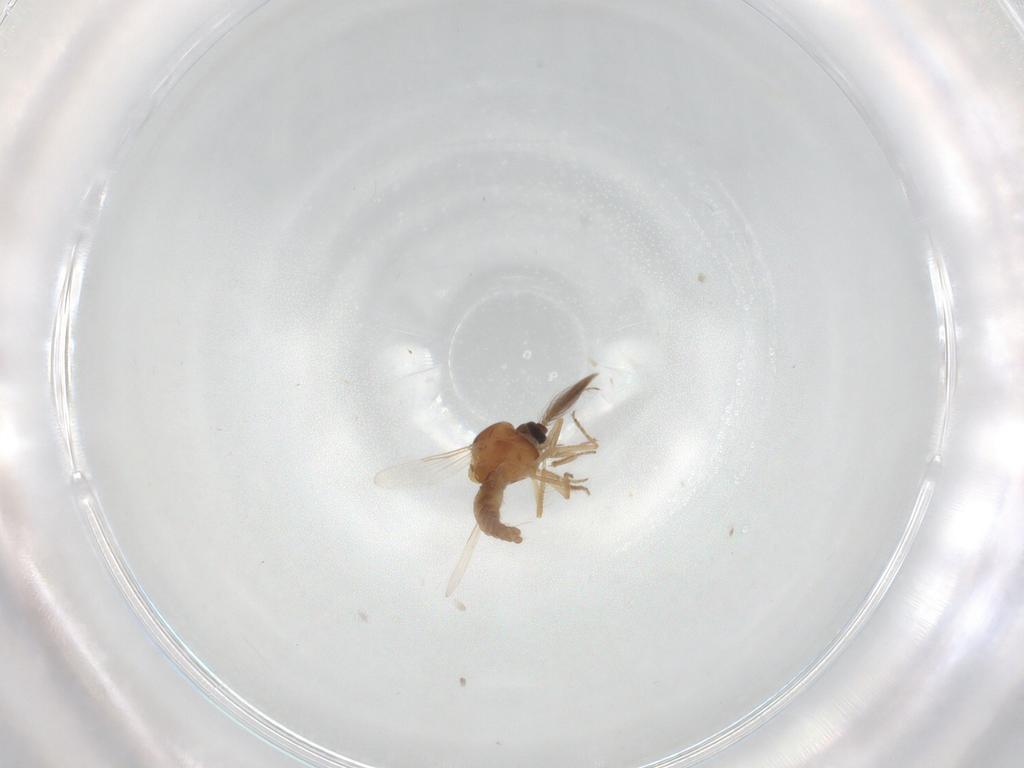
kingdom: Animalia
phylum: Arthropoda
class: Insecta
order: Diptera
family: Ceratopogonidae
